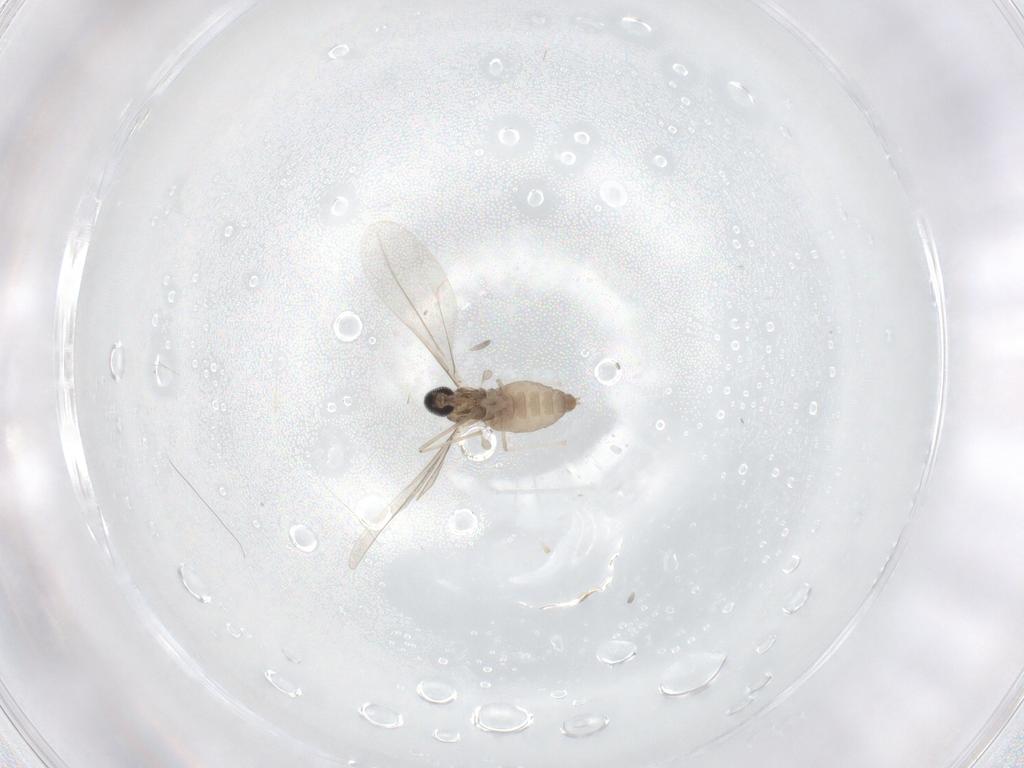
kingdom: Animalia
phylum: Arthropoda
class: Insecta
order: Diptera
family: Cecidomyiidae
